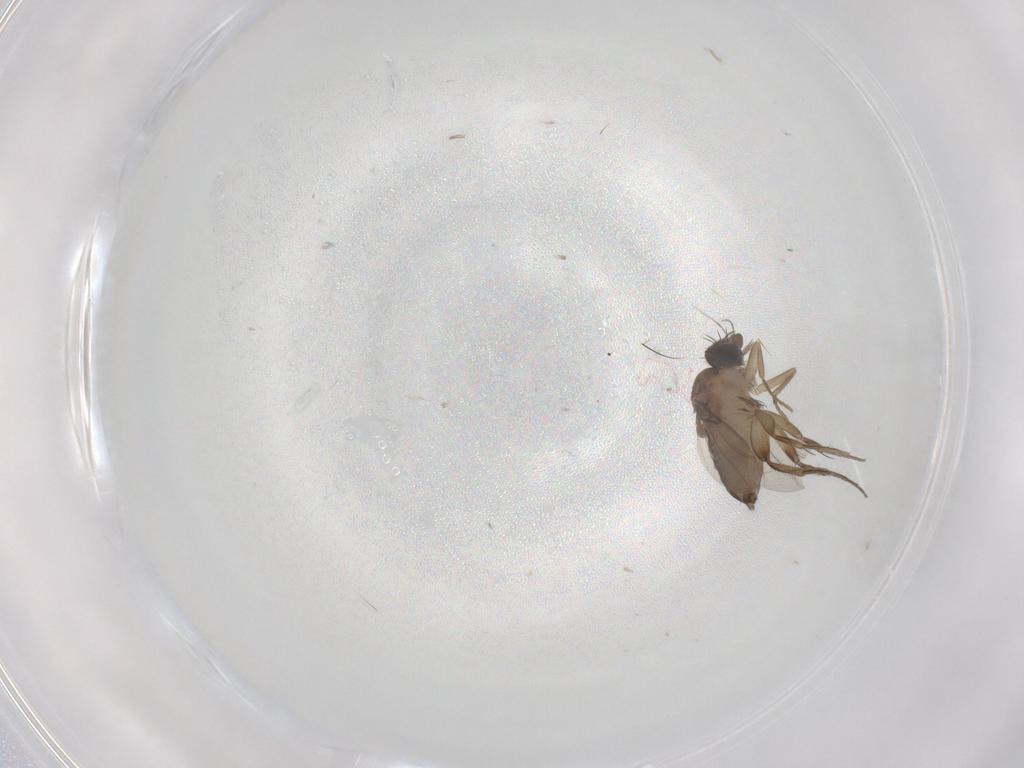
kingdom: Animalia
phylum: Arthropoda
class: Insecta
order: Diptera
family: Phoridae
